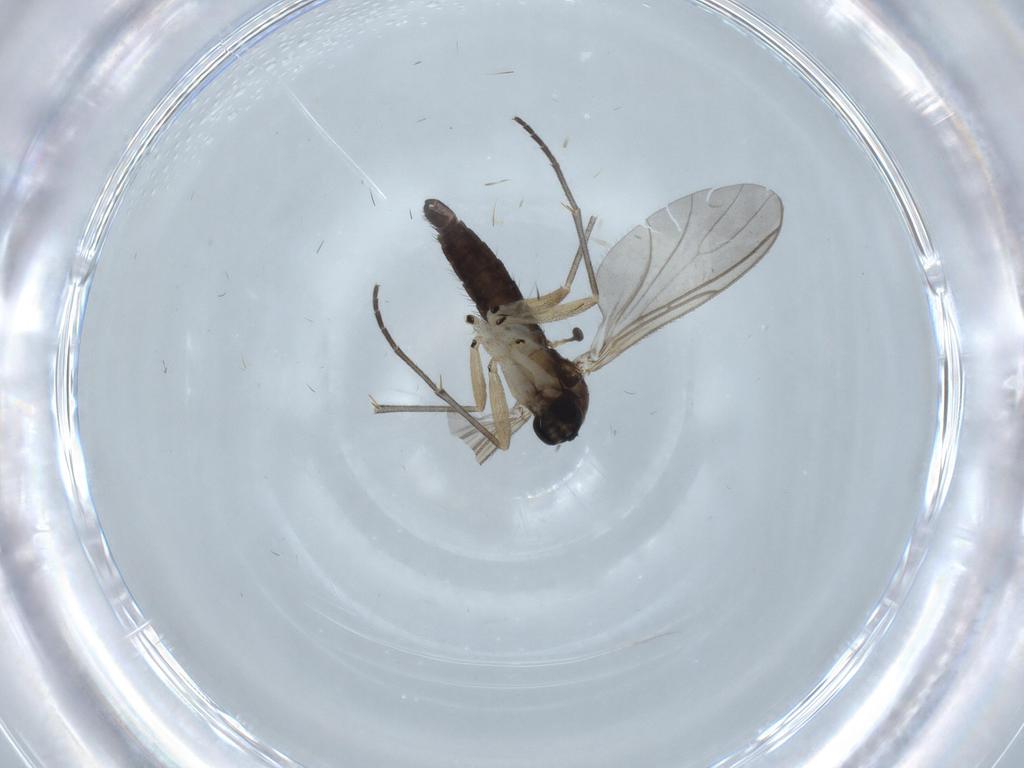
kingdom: Animalia
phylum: Arthropoda
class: Insecta
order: Diptera
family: Sciaridae
